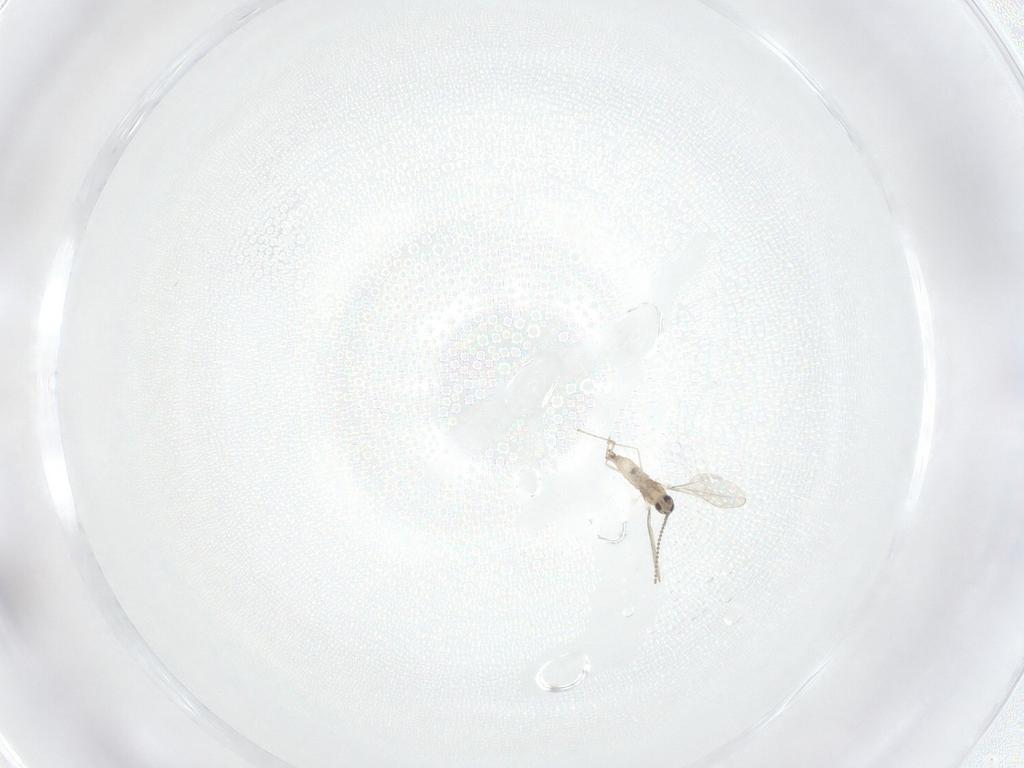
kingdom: Animalia
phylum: Arthropoda
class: Insecta
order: Diptera
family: Cecidomyiidae
